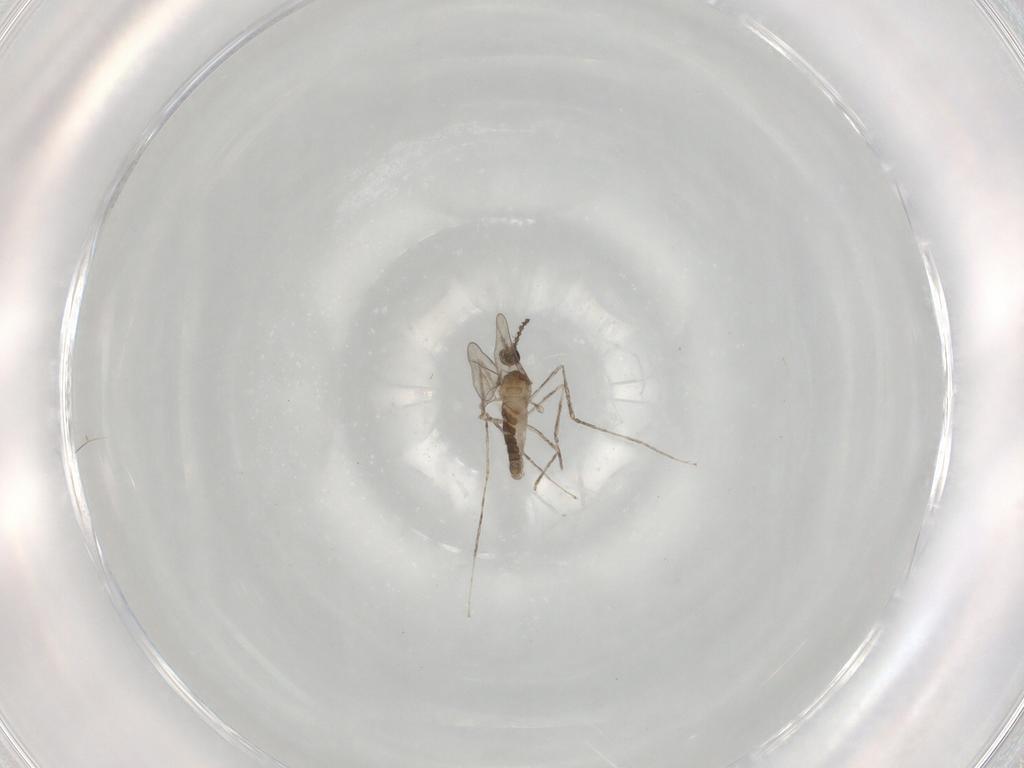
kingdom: Animalia
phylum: Arthropoda
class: Insecta
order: Diptera
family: Cecidomyiidae
